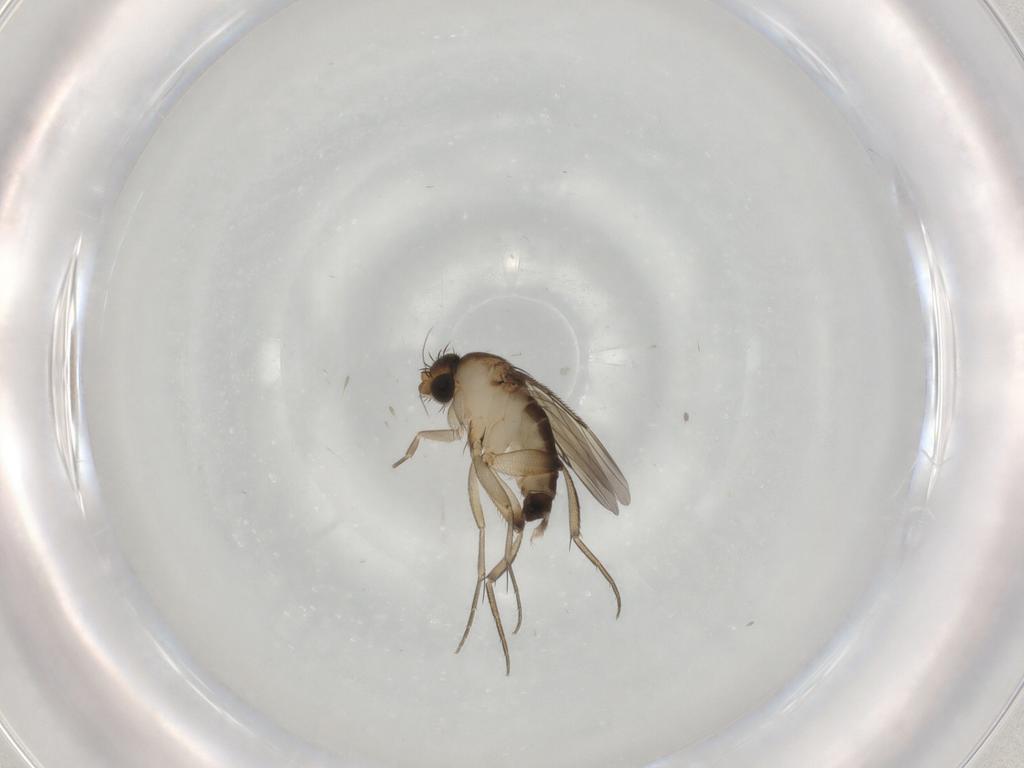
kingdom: Animalia
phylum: Arthropoda
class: Insecta
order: Diptera
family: Phoridae
